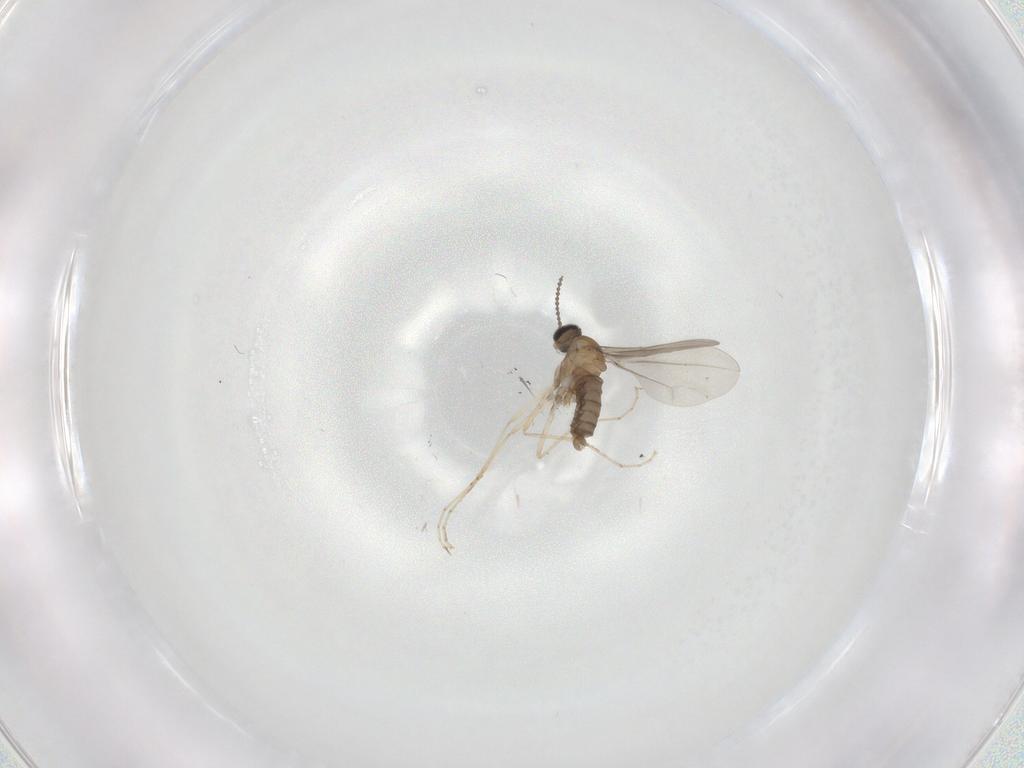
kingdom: Animalia
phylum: Arthropoda
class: Insecta
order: Diptera
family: Chironomidae
